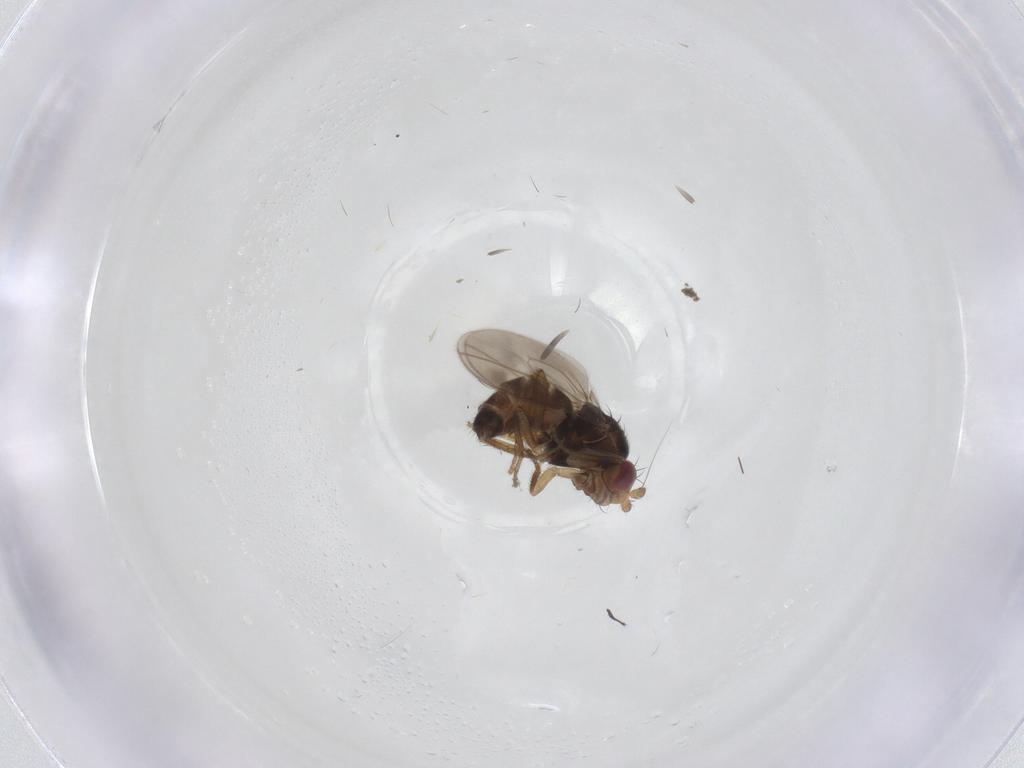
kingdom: Animalia
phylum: Arthropoda
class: Insecta
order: Diptera
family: Sphaeroceridae
